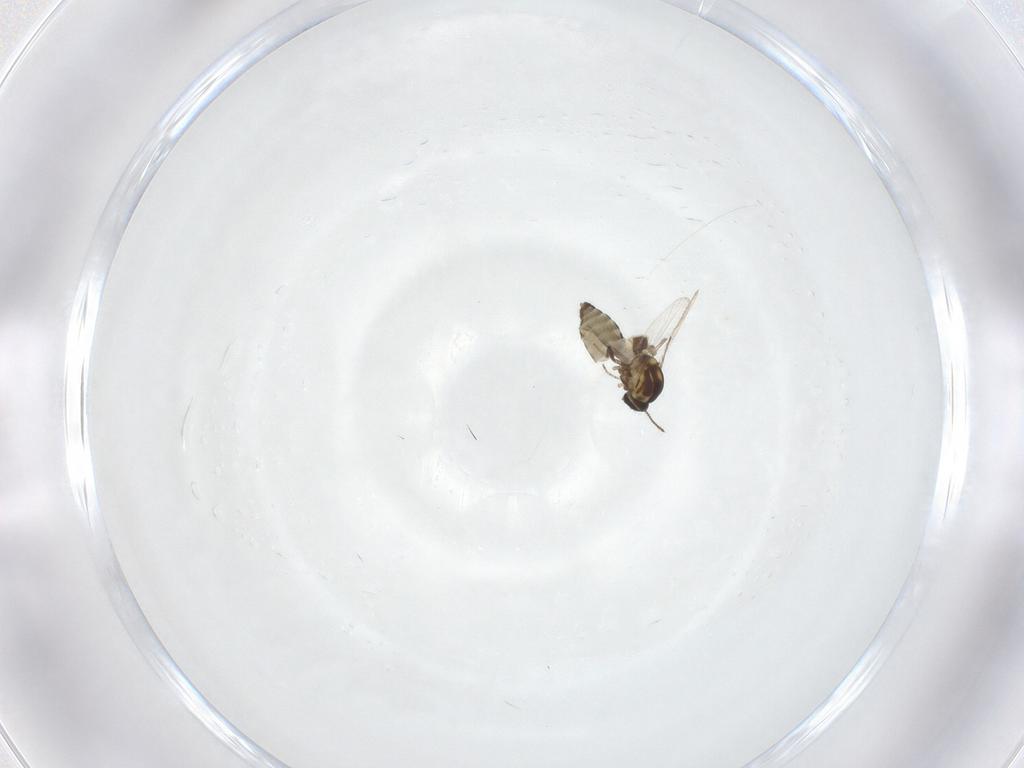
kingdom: Animalia
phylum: Arthropoda
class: Insecta
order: Diptera
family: Ceratopogonidae
